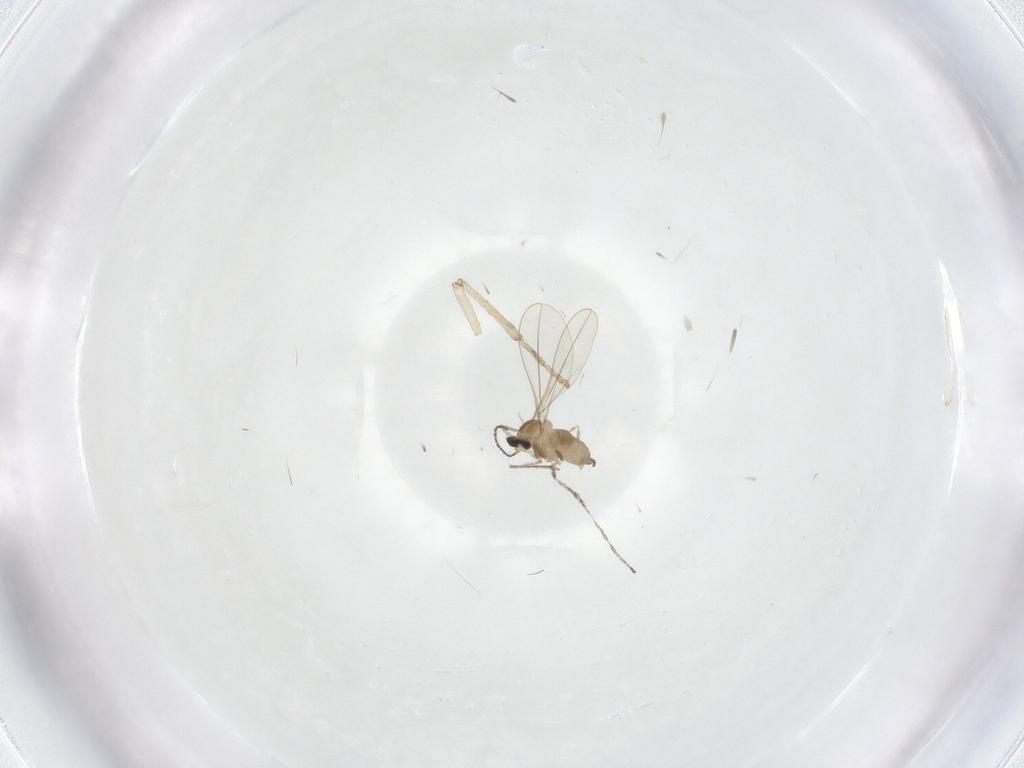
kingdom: Animalia
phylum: Arthropoda
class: Insecta
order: Diptera
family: Cecidomyiidae
